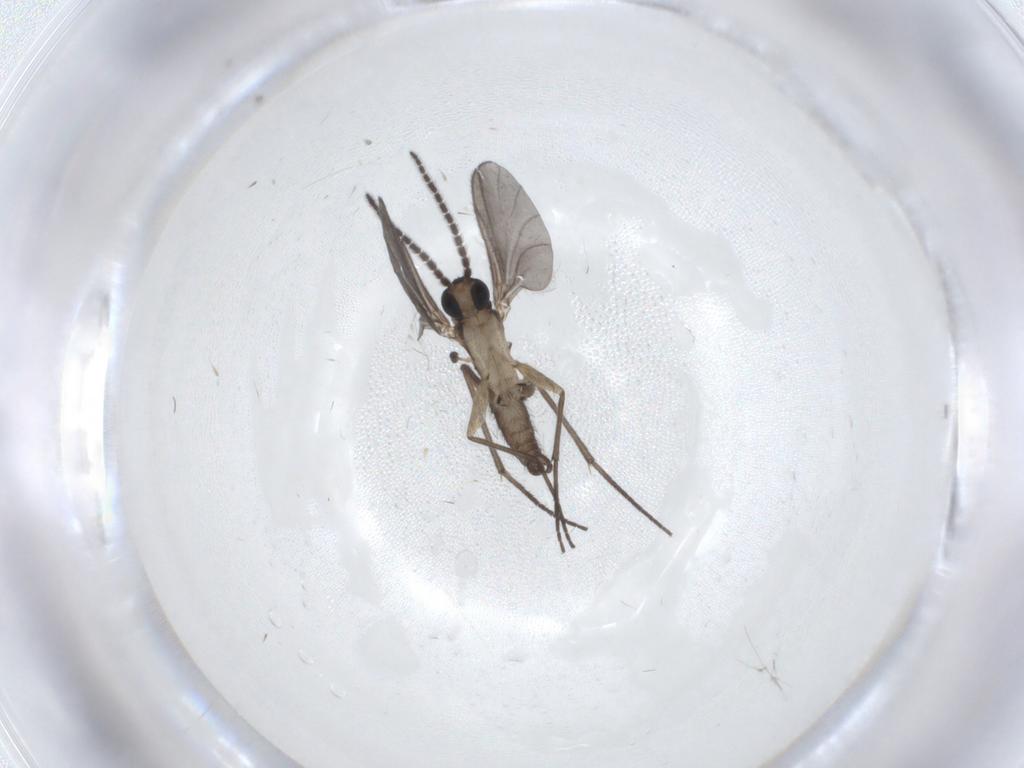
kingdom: Animalia
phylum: Arthropoda
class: Insecta
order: Diptera
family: Sciaridae
